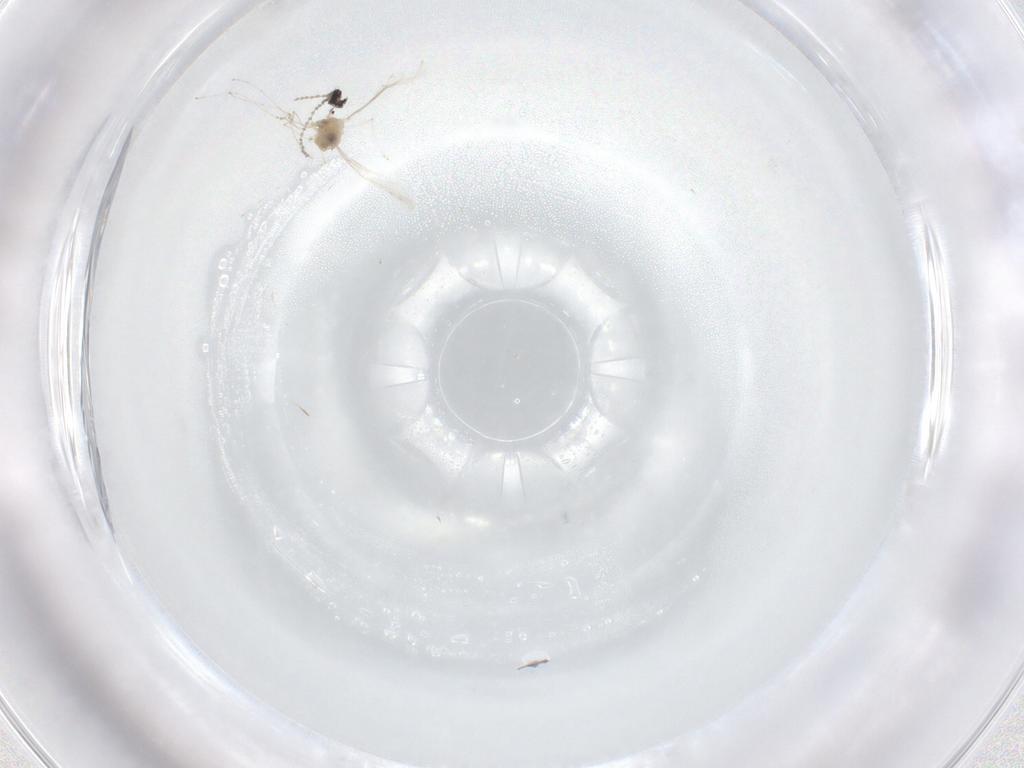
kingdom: Animalia
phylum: Arthropoda
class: Insecta
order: Diptera
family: Cecidomyiidae
